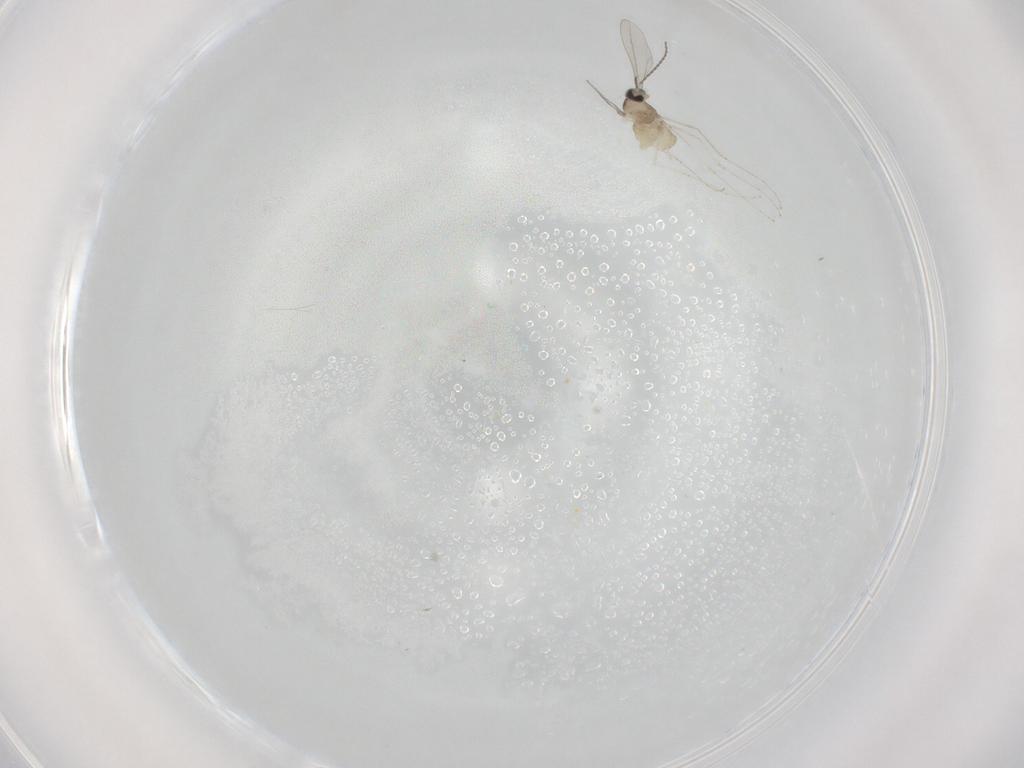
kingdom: Animalia
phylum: Arthropoda
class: Insecta
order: Diptera
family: Cecidomyiidae
